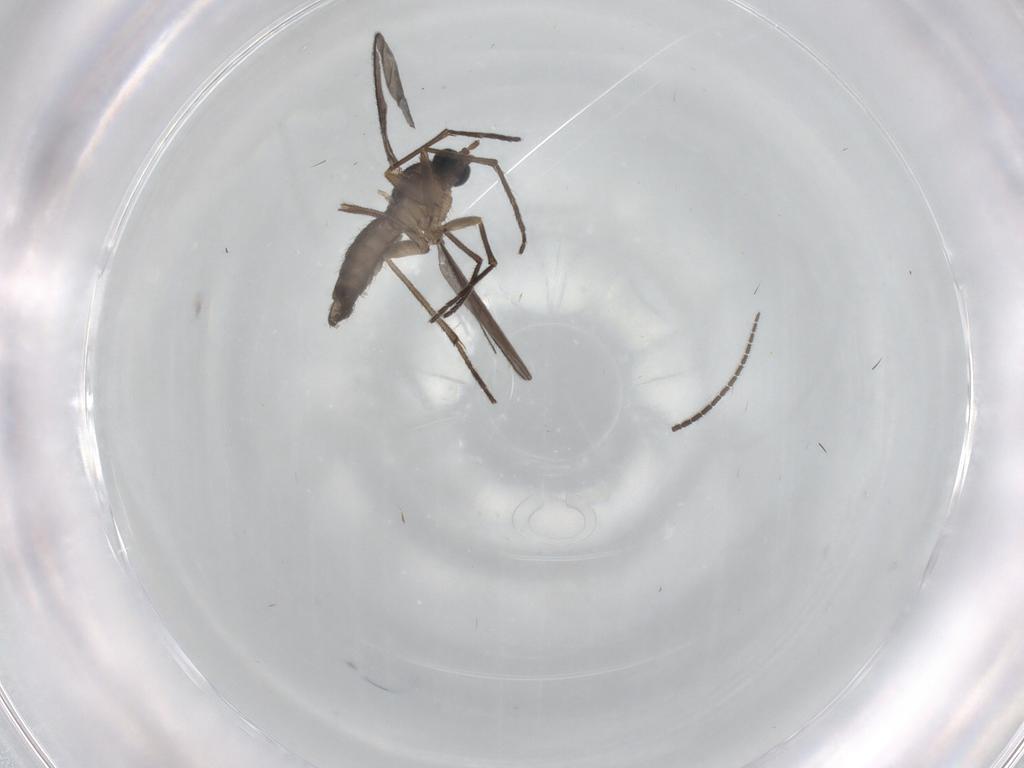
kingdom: Animalia
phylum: Arthropoda
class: Insecta
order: Diptera
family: Sciaridae
